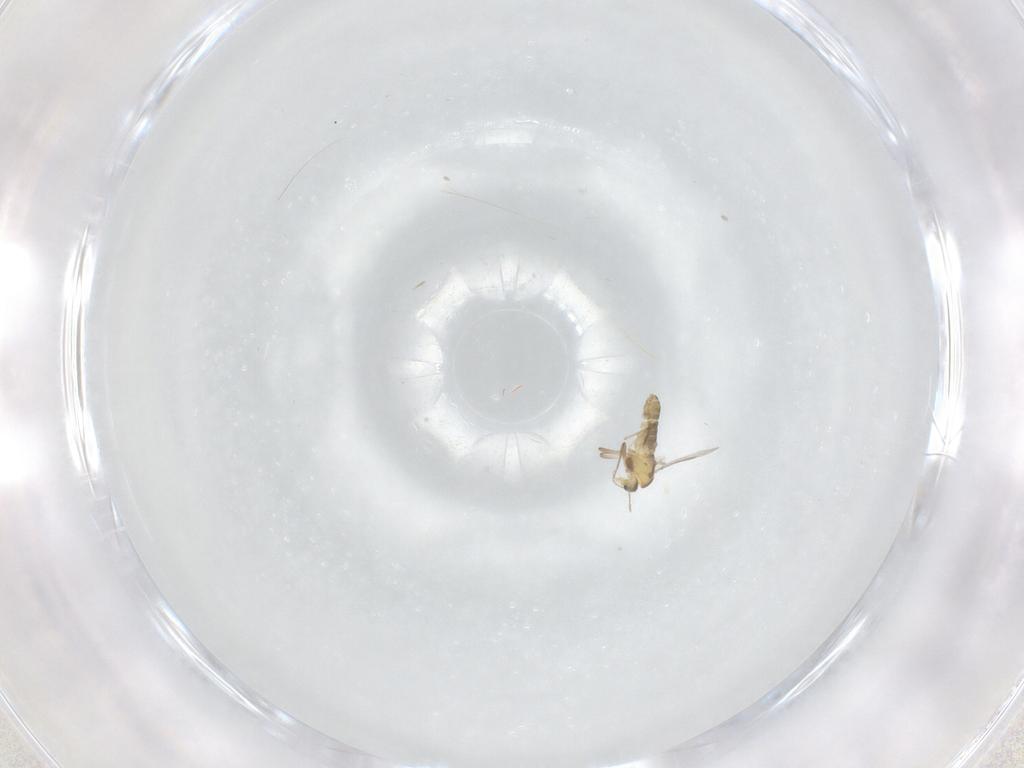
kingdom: Animalia
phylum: Arthropoda
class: Insecta
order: Diptera
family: Chironomidae
